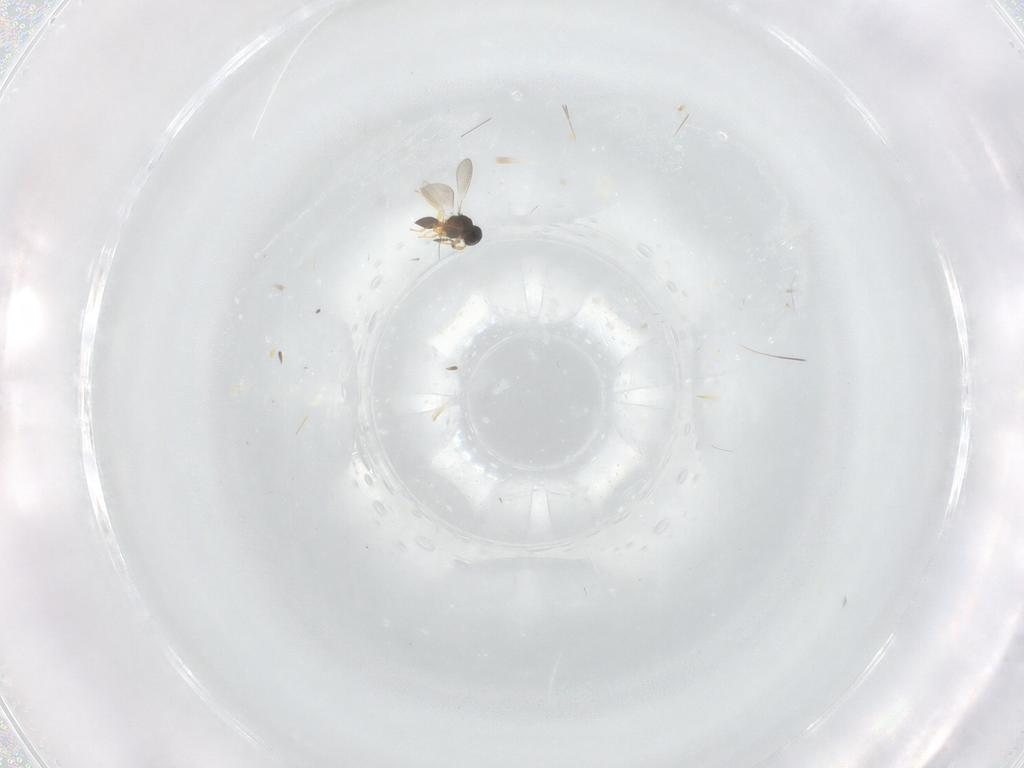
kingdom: Animalia
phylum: Arthropoda
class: Insecta
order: Hymenoptera
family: Platygastridae
